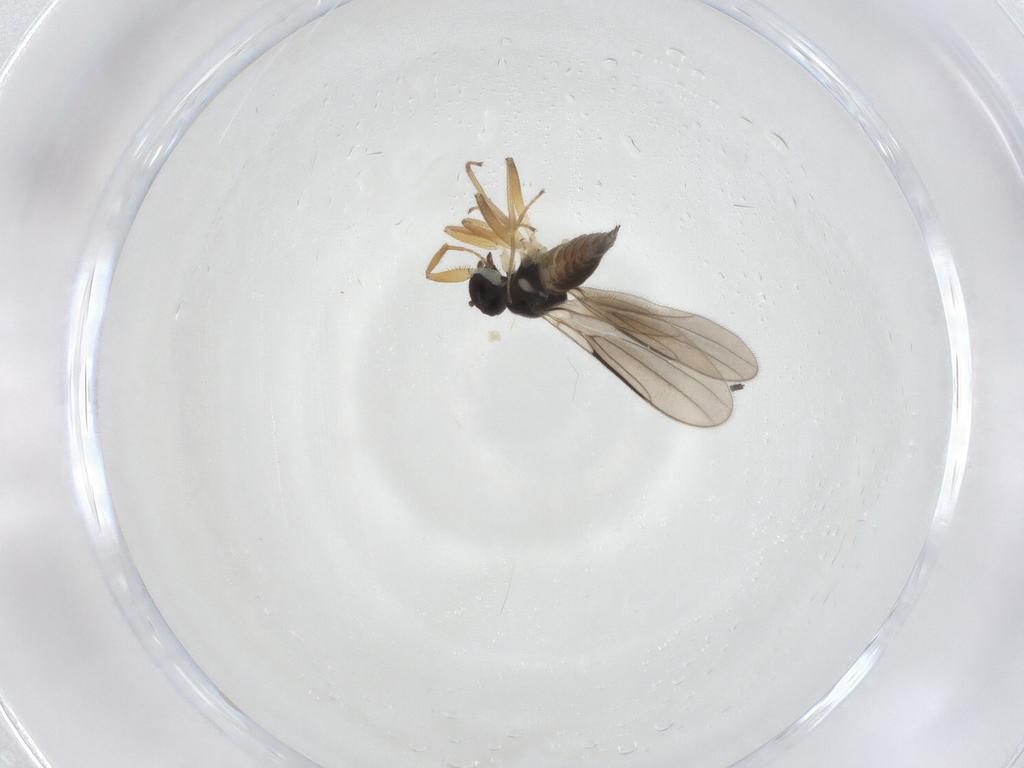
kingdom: Animalia
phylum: Arthropoda
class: Insecta
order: Diptera
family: Hybotidae
